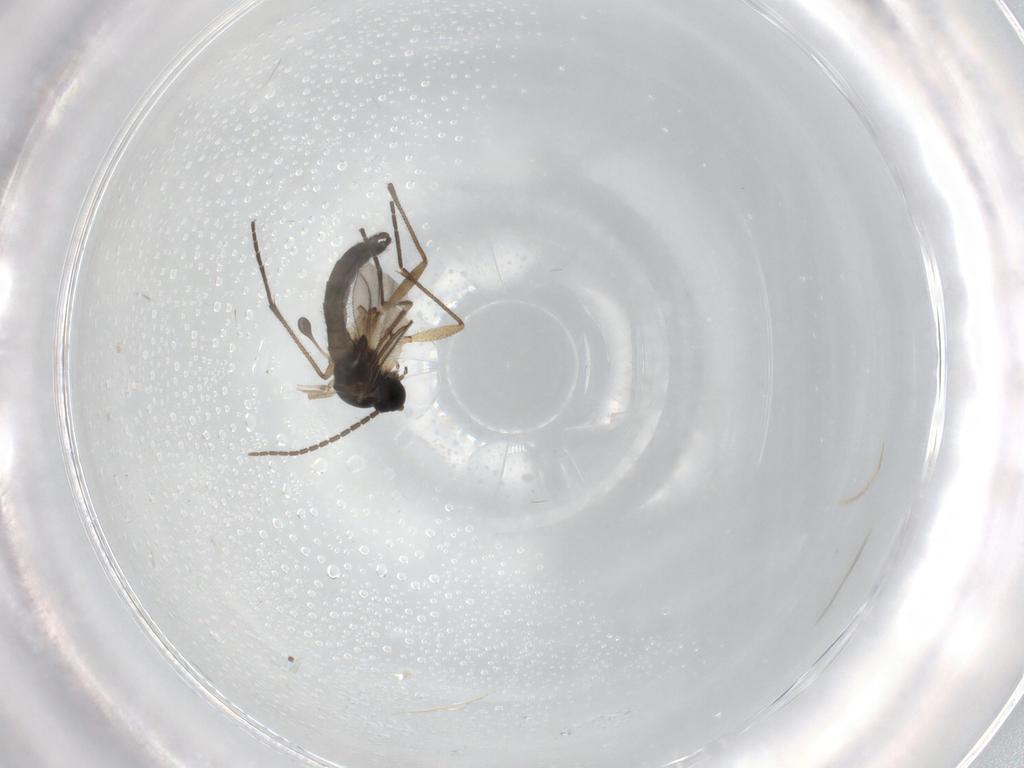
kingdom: Animalia
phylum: Arthropoda
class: Insecta
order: Diptera
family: Sciaridae
